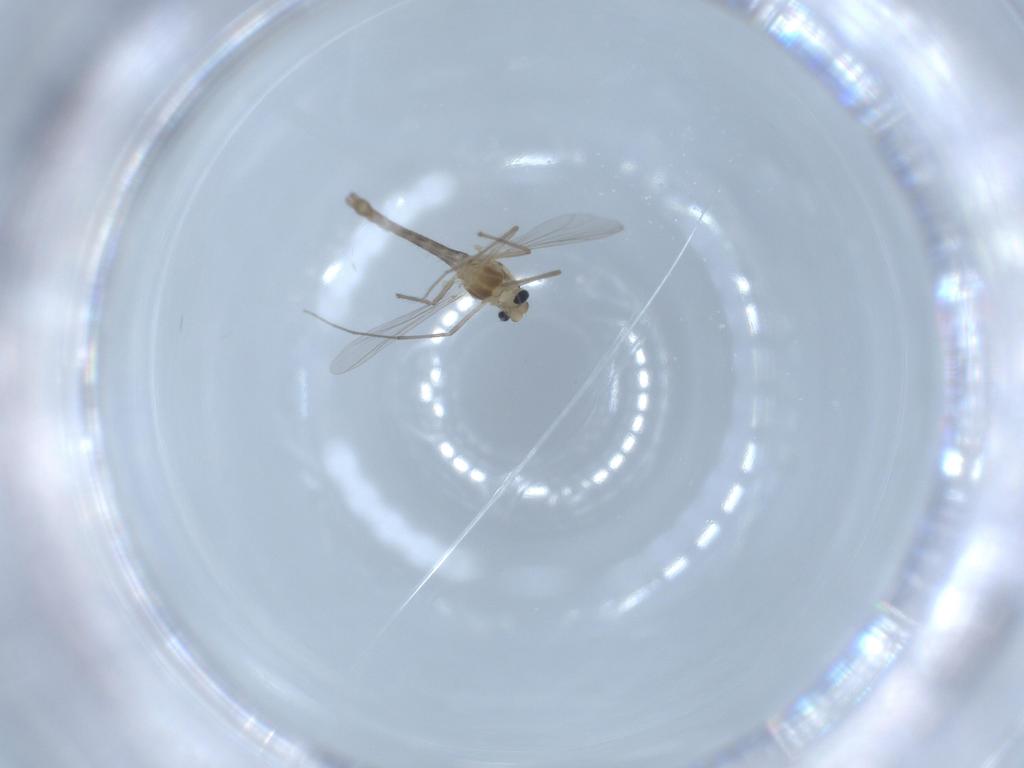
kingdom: Animalia
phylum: Arthropoda
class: Insecta
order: Diptera
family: Chironomidae
